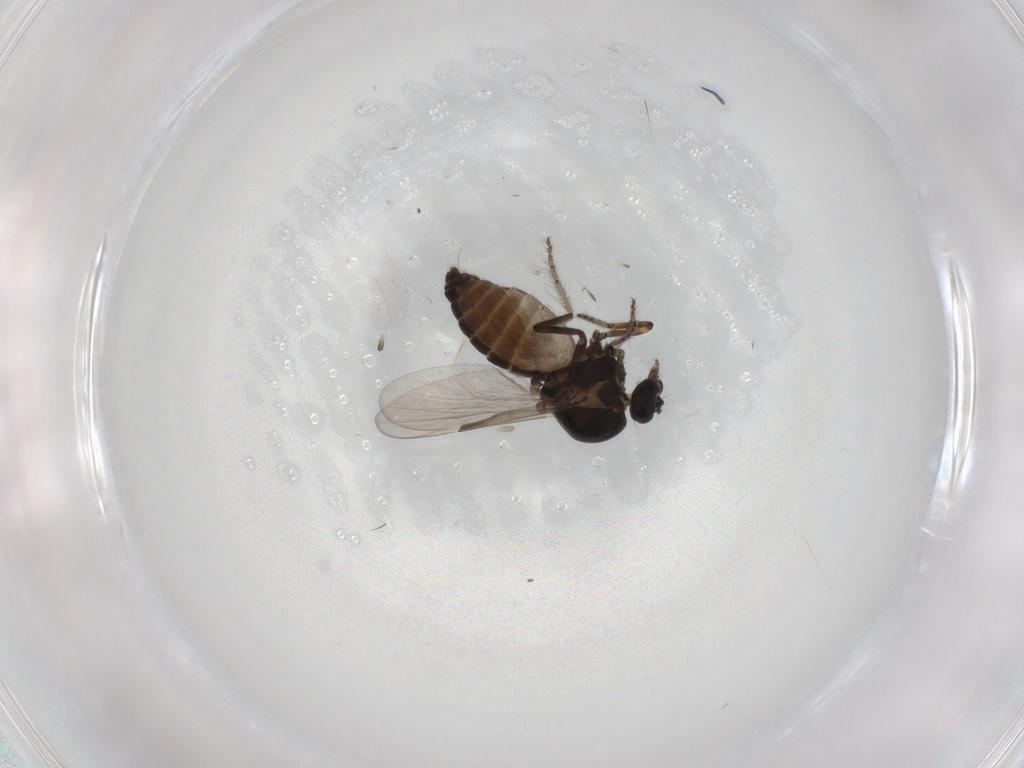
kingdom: Animalia
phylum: Arthropoda
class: Insecta
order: Diptera
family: Ceratopogonidae
